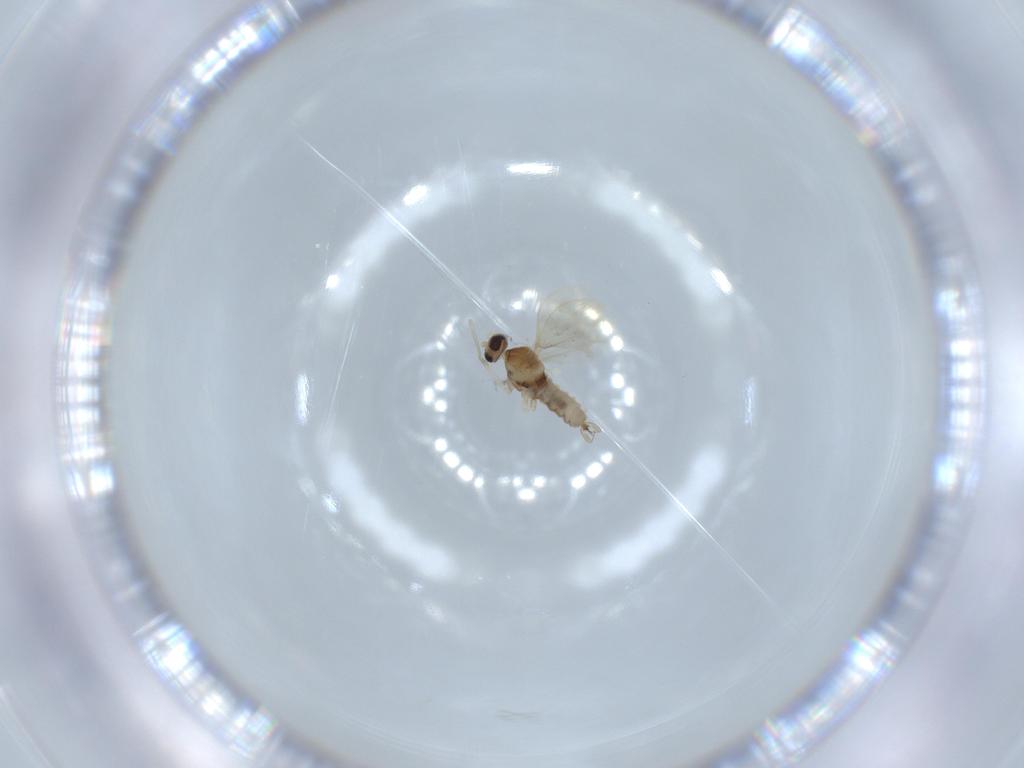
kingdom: Animalia
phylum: Arthropoda
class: Insecta
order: Diptera
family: Cecidomyiidae
